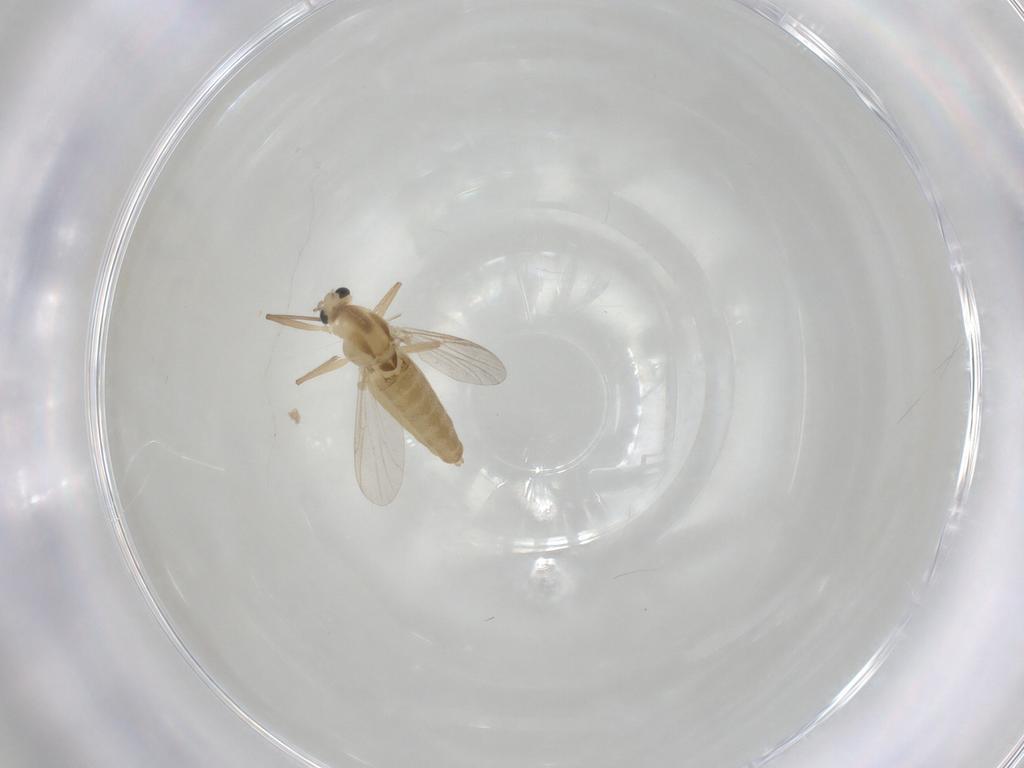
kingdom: Animalia
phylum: Arthropoda
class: Insecta
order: Diptera
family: Chironomidae
